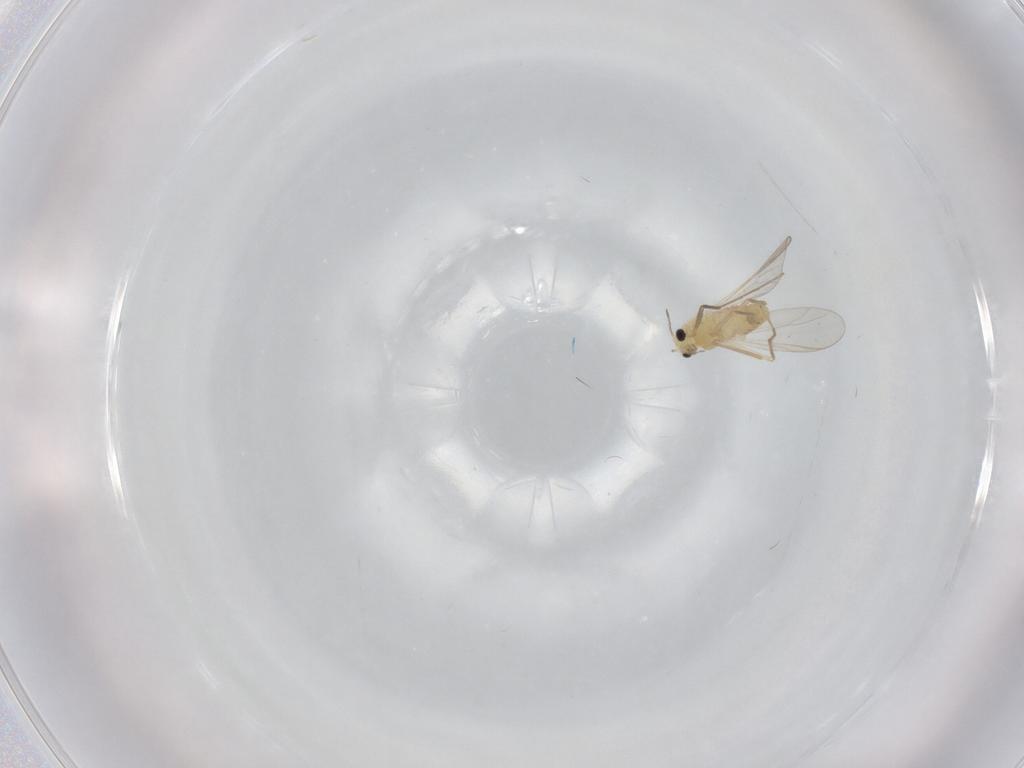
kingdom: Animalia
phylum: Arthropoda
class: Insecta
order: Diptera
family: Chironomidae
